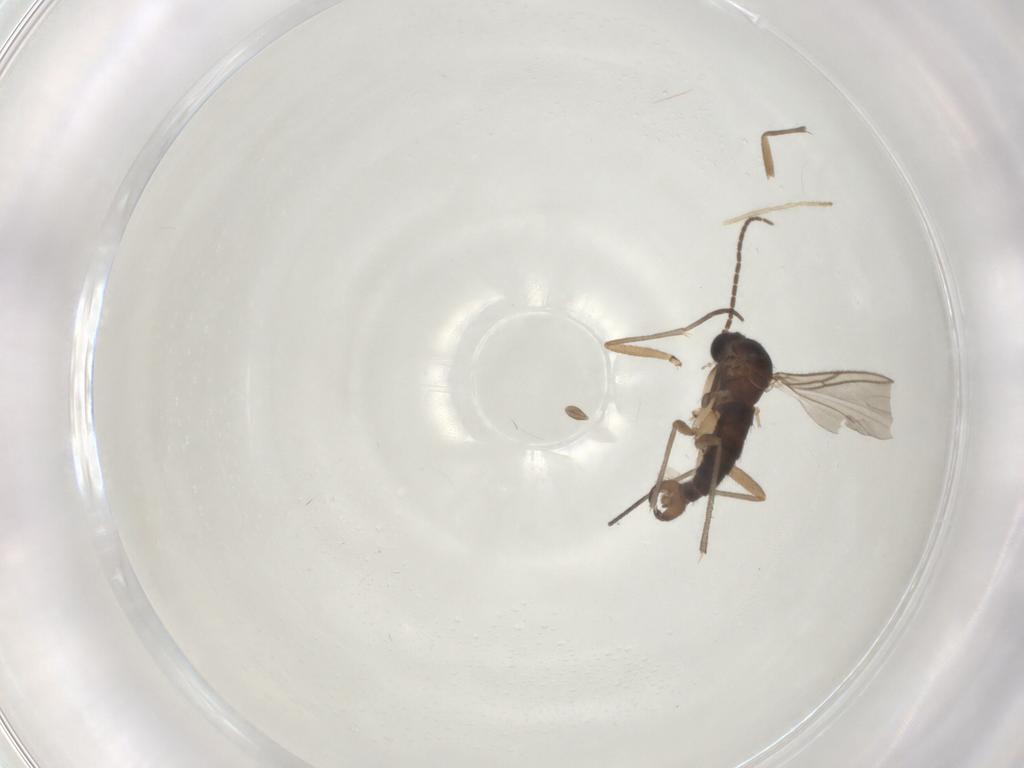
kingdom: Animalia
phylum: Arthropoda
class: Insecta
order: Diptera
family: Sciaridae
